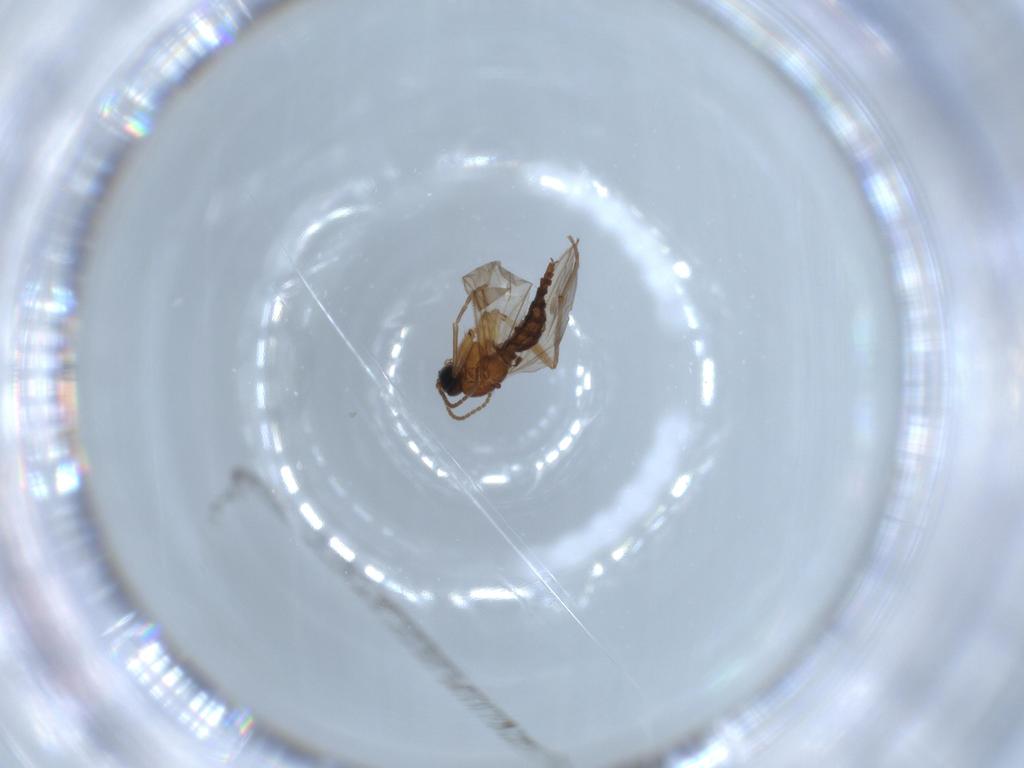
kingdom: Animalia
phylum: Arthropoda
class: Insecta
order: Diptera
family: Sciaridae
